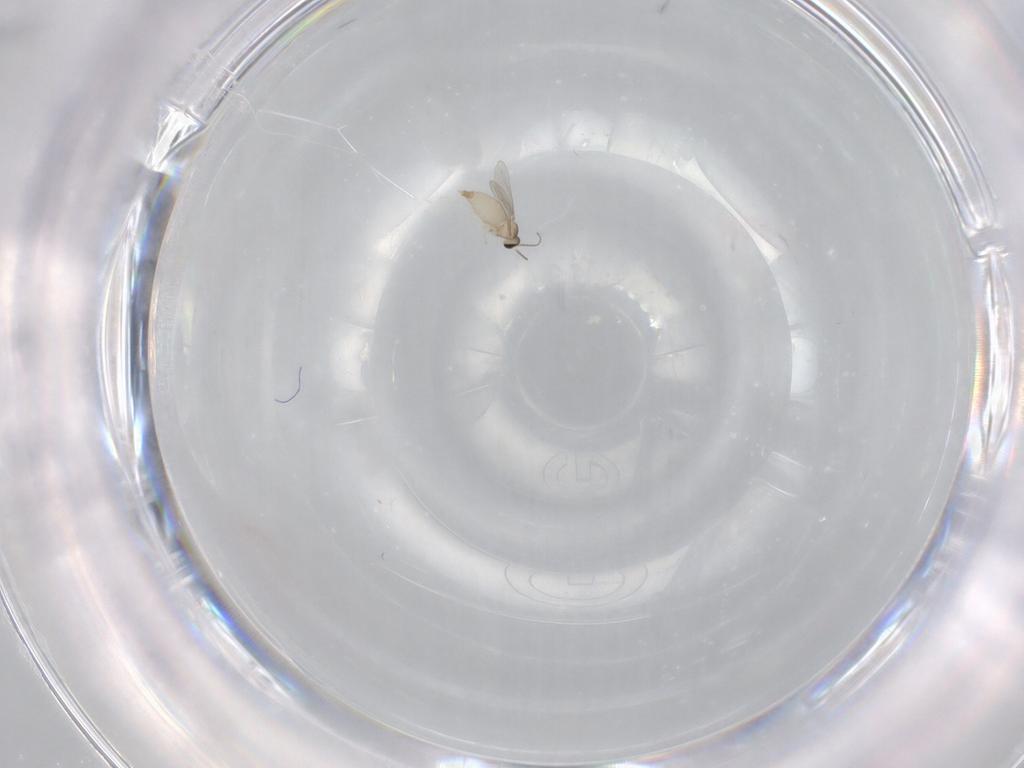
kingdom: Animalia
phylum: Arthropoda
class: Insecta
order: Diptera
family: Cecidomyiidae
